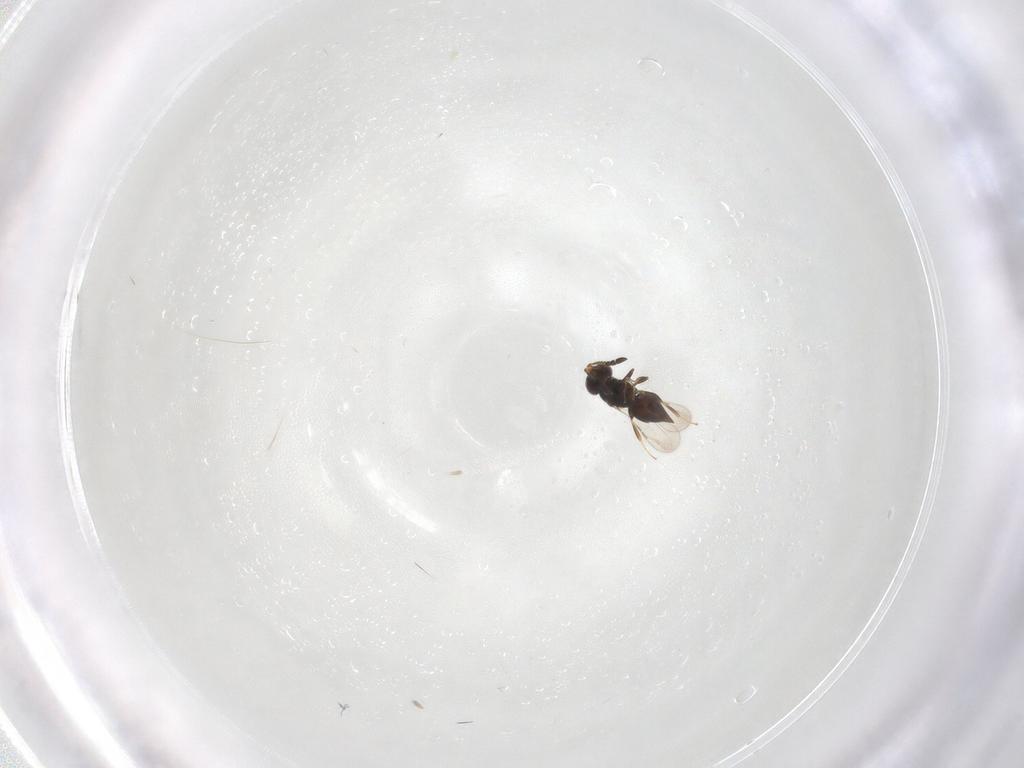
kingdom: Animalia
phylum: Arthropoda
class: Insecta
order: Hymenoptera
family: Ceraphronidae
